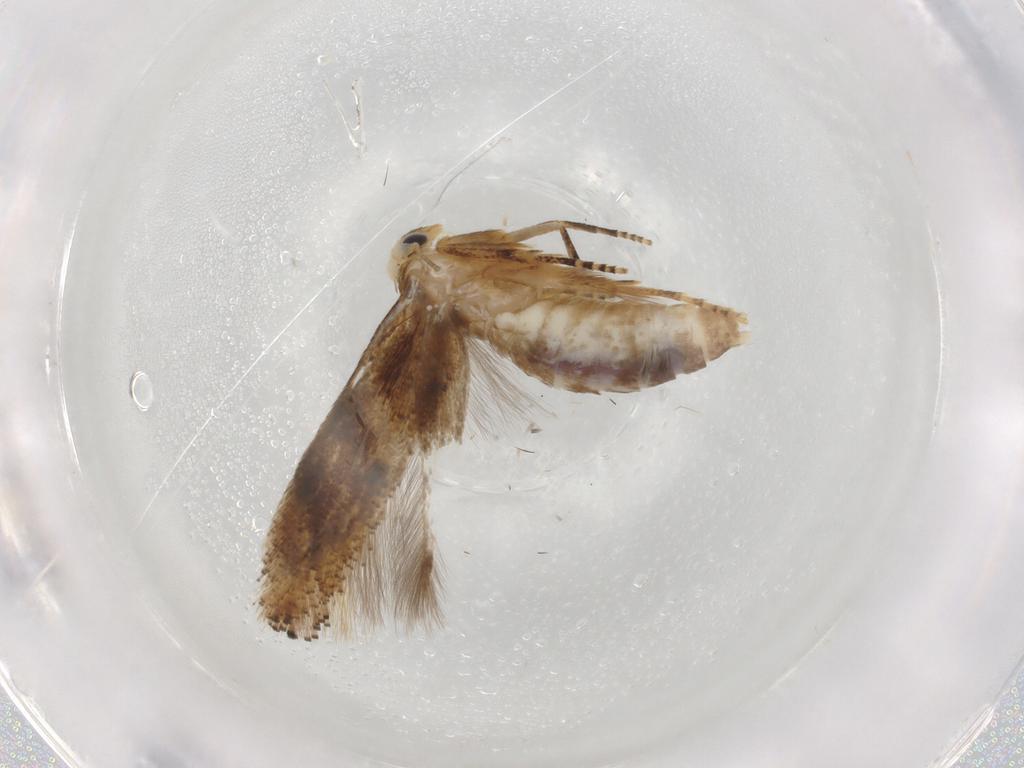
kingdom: Animalia
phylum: Arthropoda
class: Insecta
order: Lepidoptera
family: Bucculatricidae
